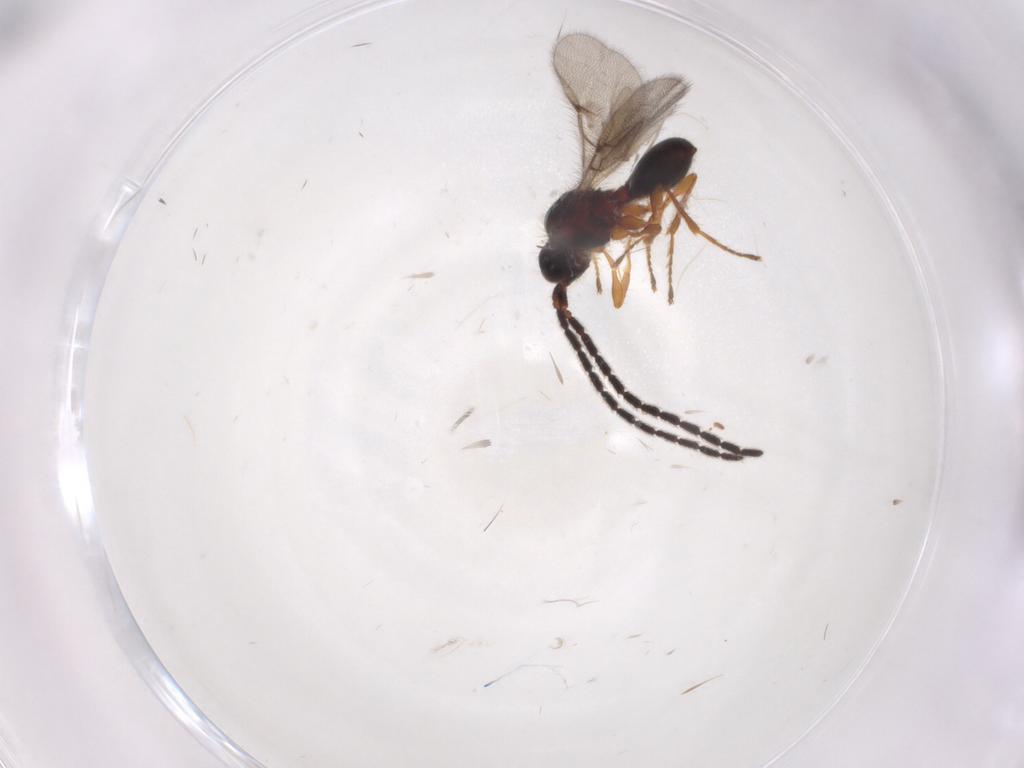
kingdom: Animalia
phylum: Arthropoda
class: Insecta
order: Hymenoptera
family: Diapriidae
